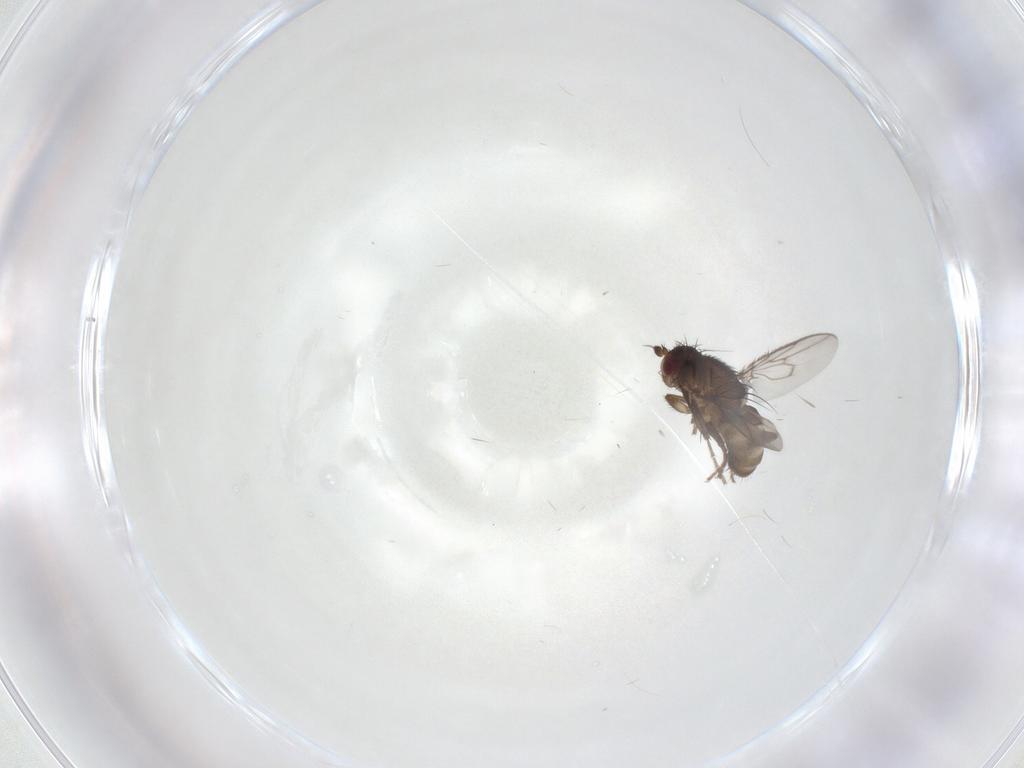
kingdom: Animalia
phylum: Arthropoda
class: Insecta
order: Diptera
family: Sphaeroceridae
